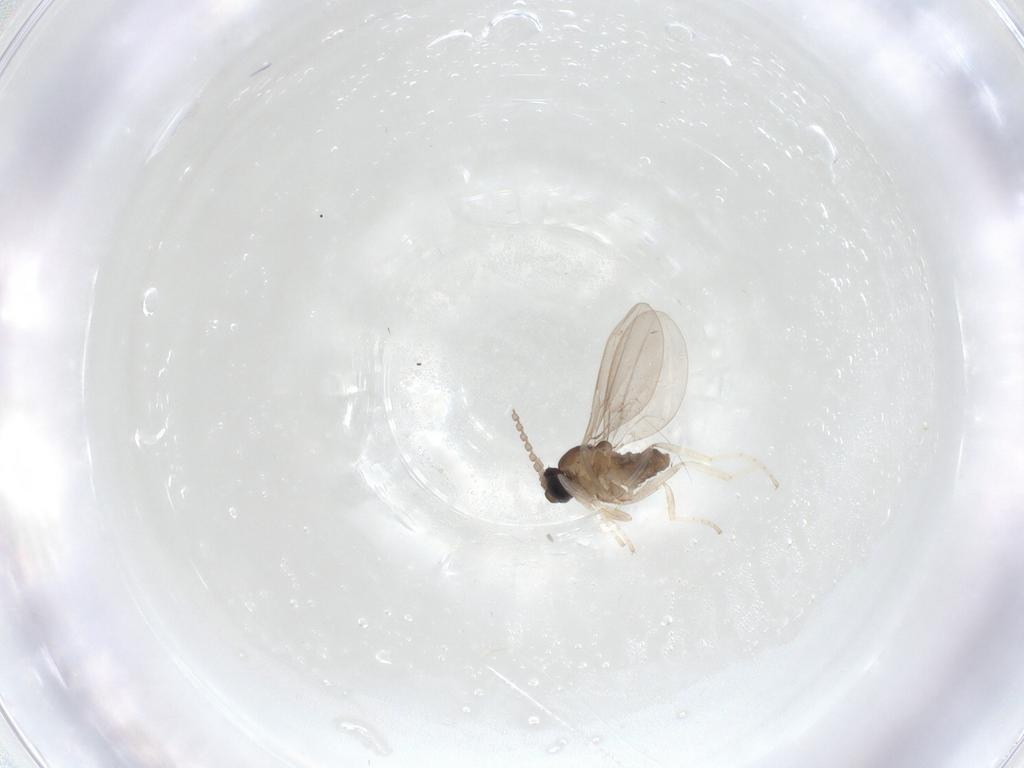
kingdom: Animalia
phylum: Arthropoda
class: Insecta
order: Diptera
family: Cecidomyiidae
